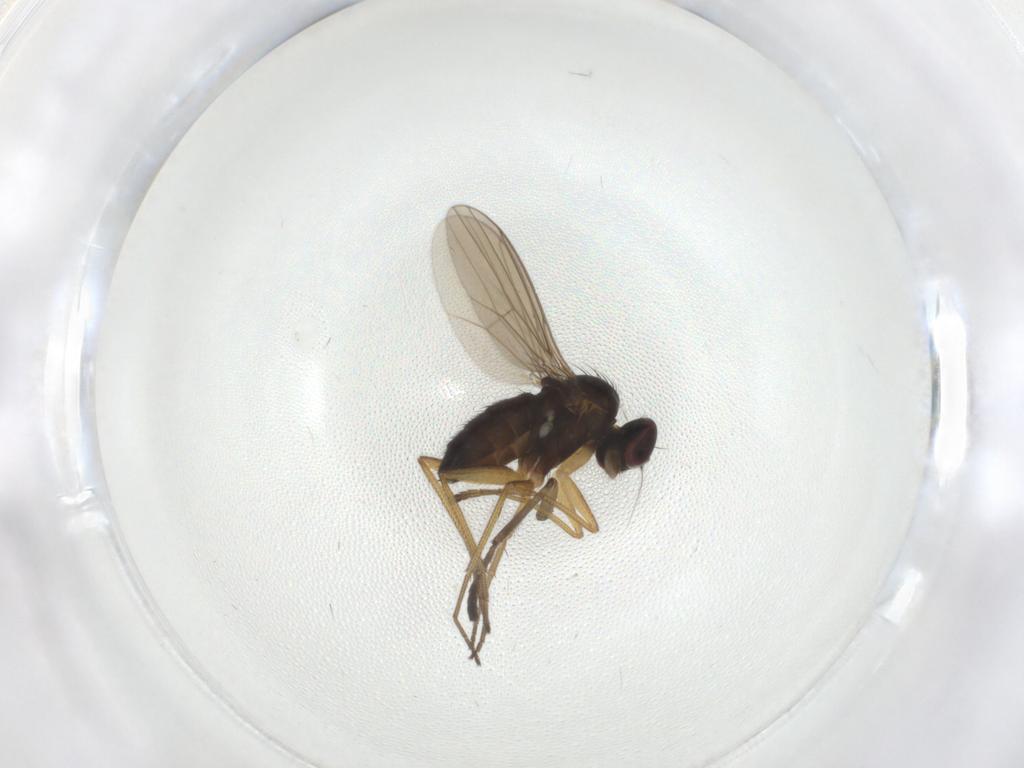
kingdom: Animalia
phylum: Arthropoda
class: Insecta
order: Diptera
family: Dolichopodidae
